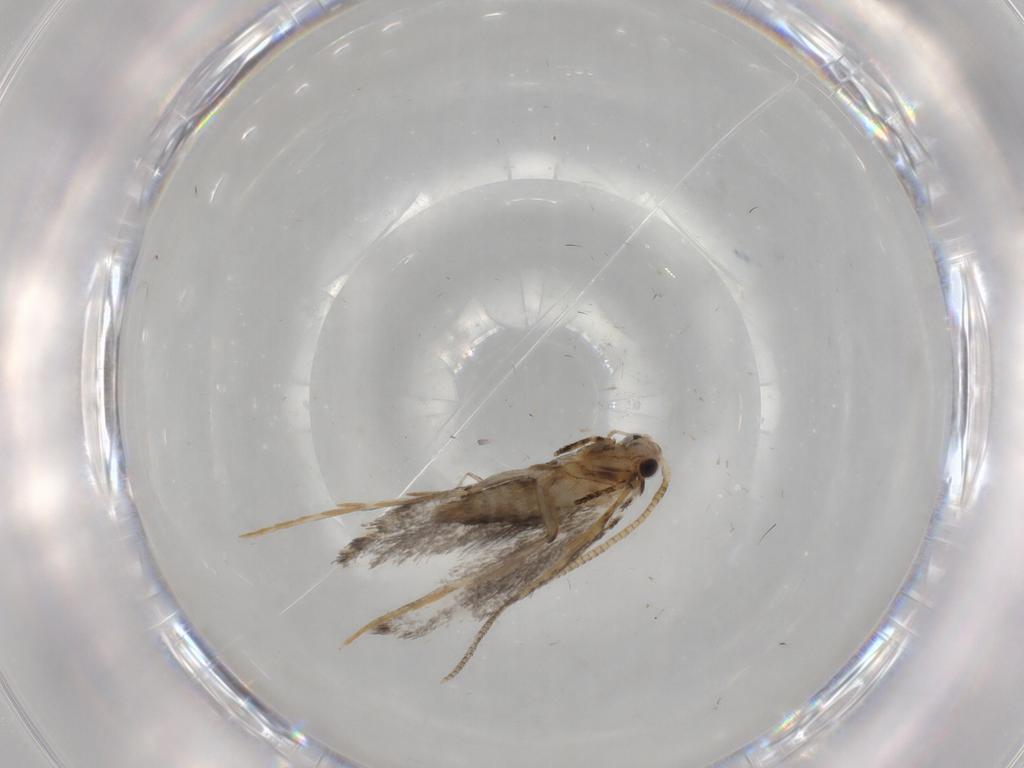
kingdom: Animalia
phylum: Arthropoda
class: Insecta
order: Lepidoptera
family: Tineidae
